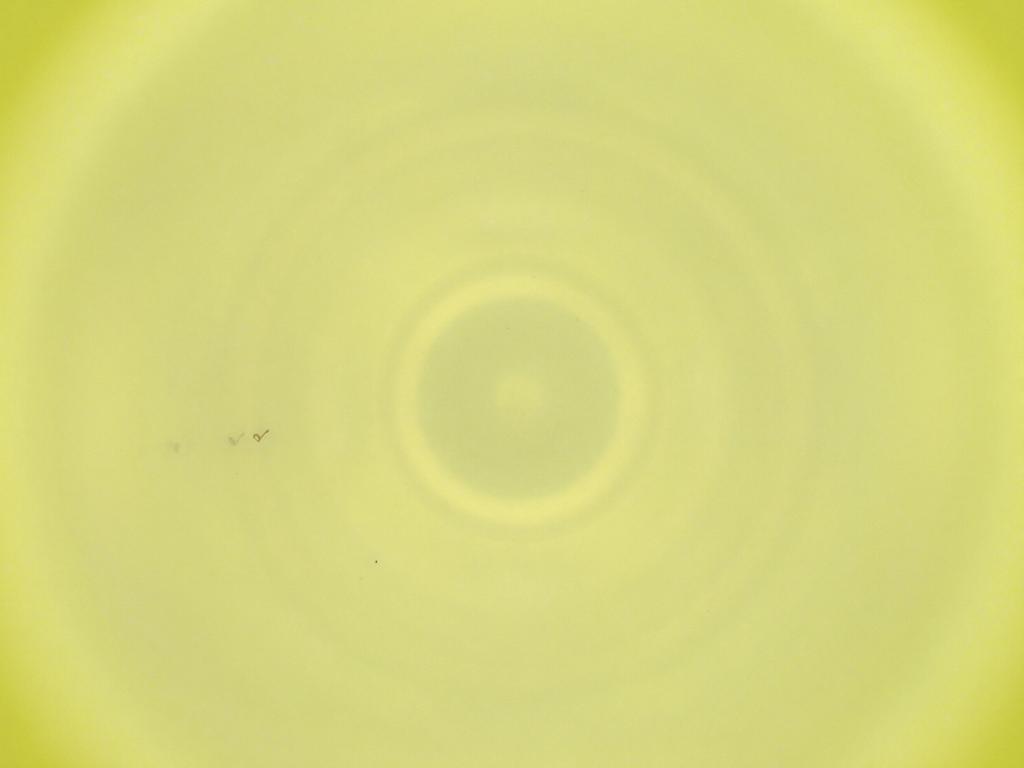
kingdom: Animalia
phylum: Arthropoda
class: Insecta
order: Diptera
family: Cecidomyiidae
